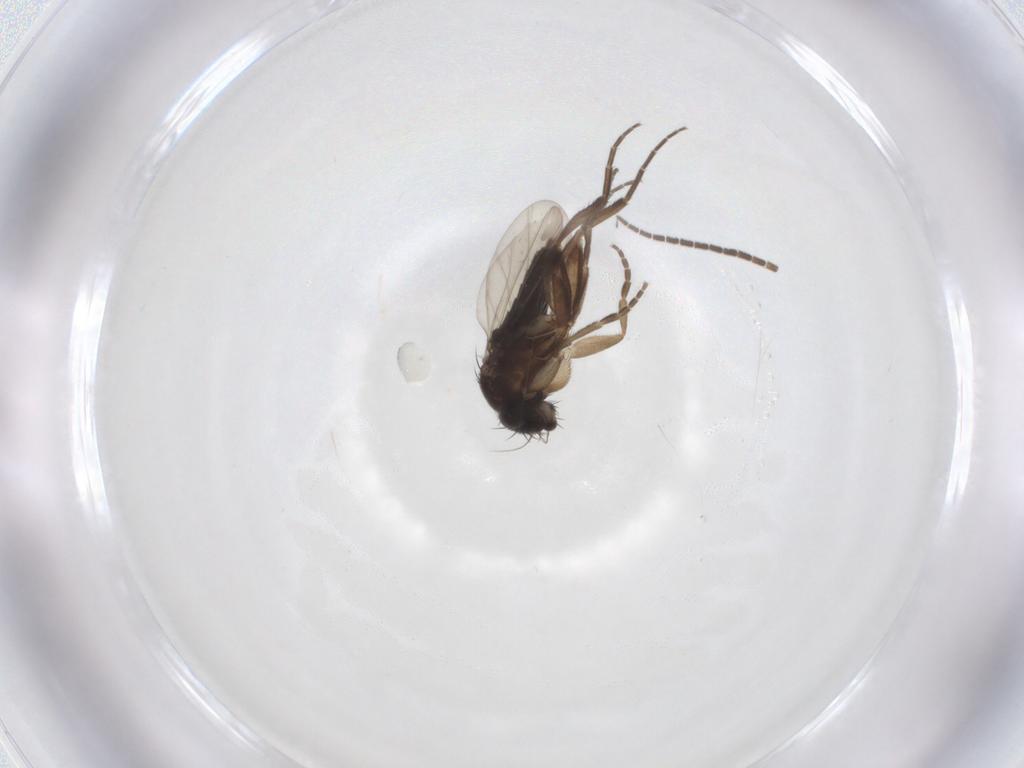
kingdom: Animalia
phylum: Arthropoda
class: Insecta
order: Diptera
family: Phoridae
